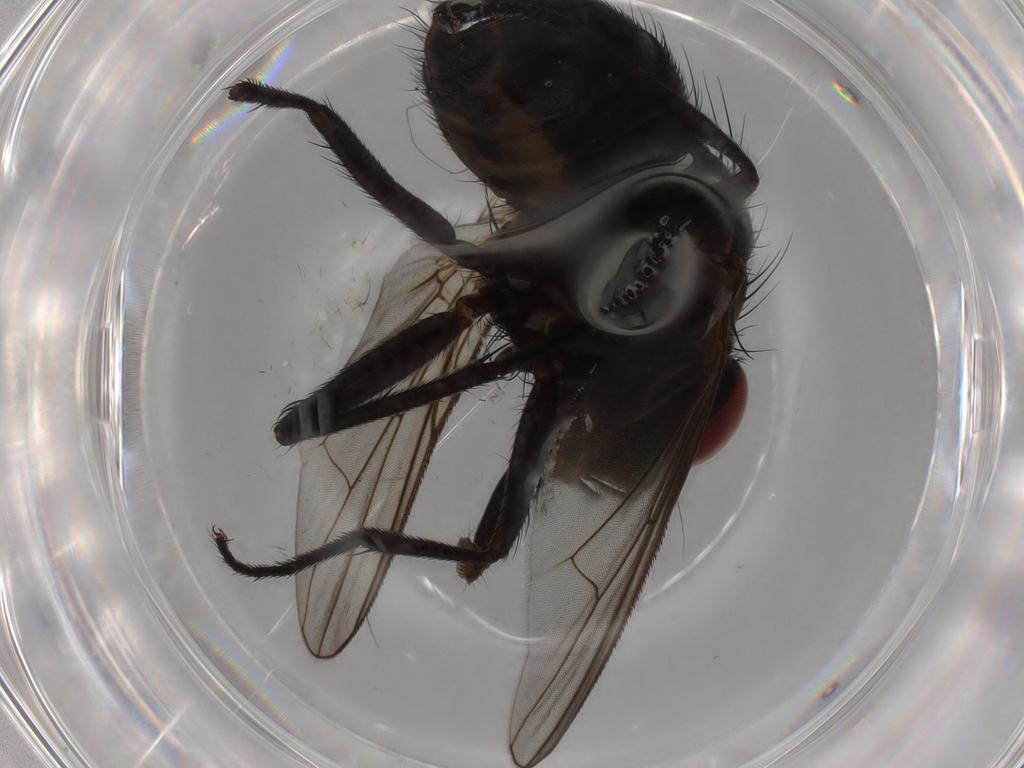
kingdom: Animalia
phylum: Arthropoda
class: Insecta
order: Diptera
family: Muscidae
